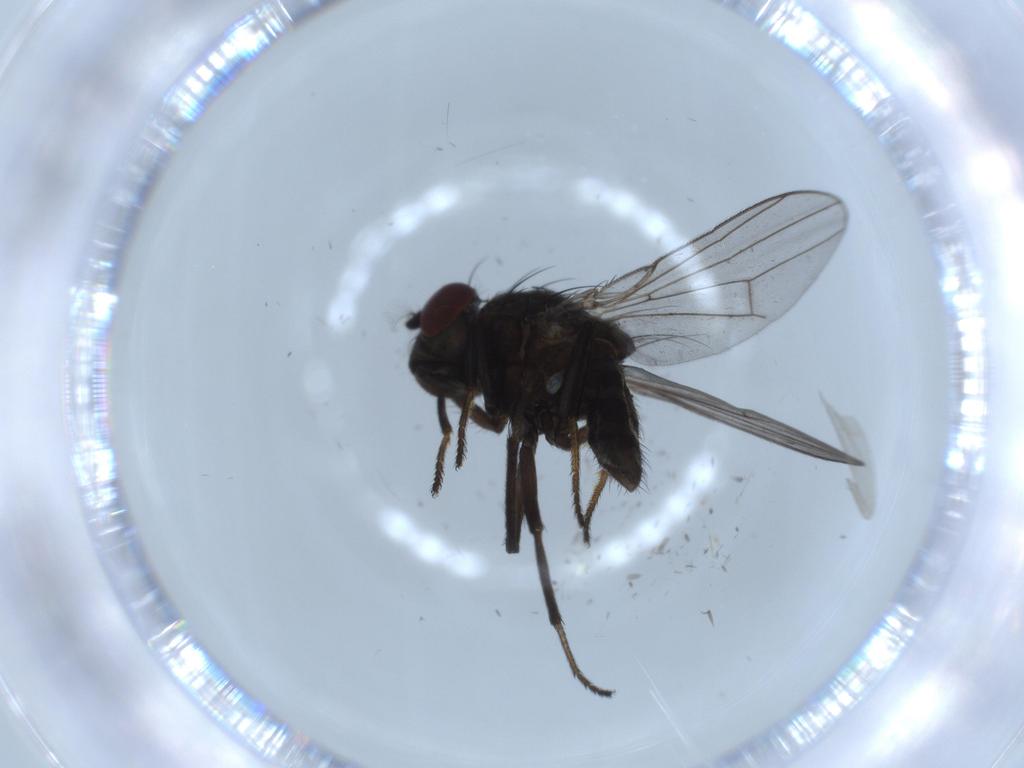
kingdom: Animalia
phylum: Arthropoda
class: Insecta
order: Diptera
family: Ephydridae
